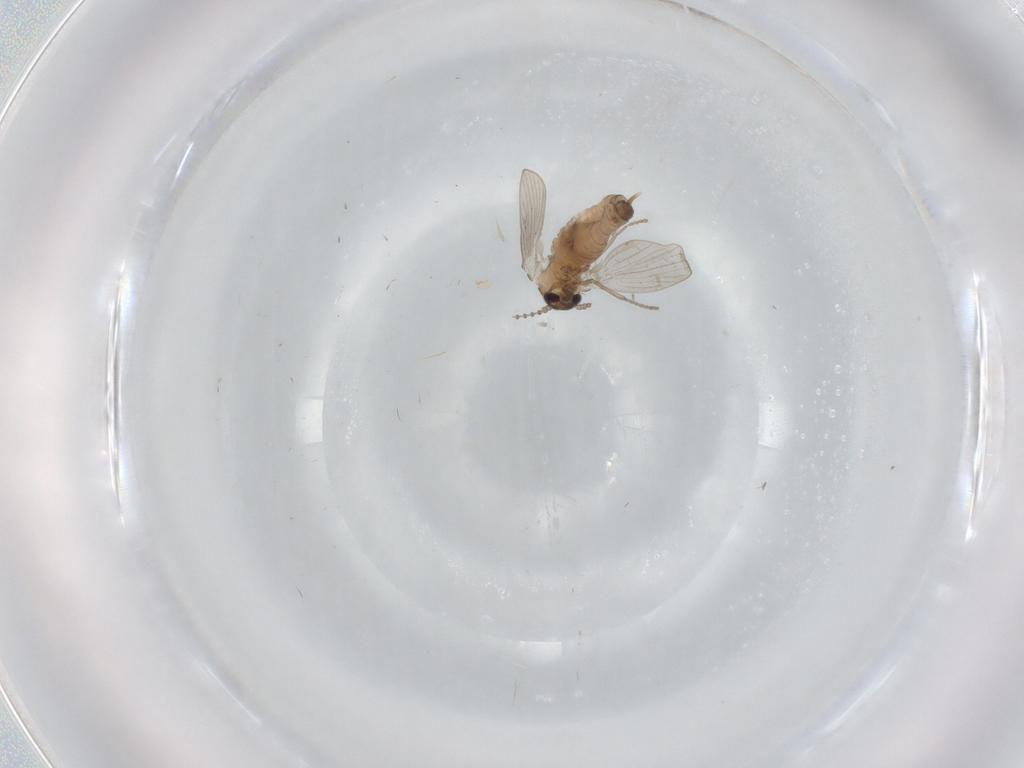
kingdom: Animalia
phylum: Arthropoda
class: Insecta
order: Diptera
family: Psychodidae
